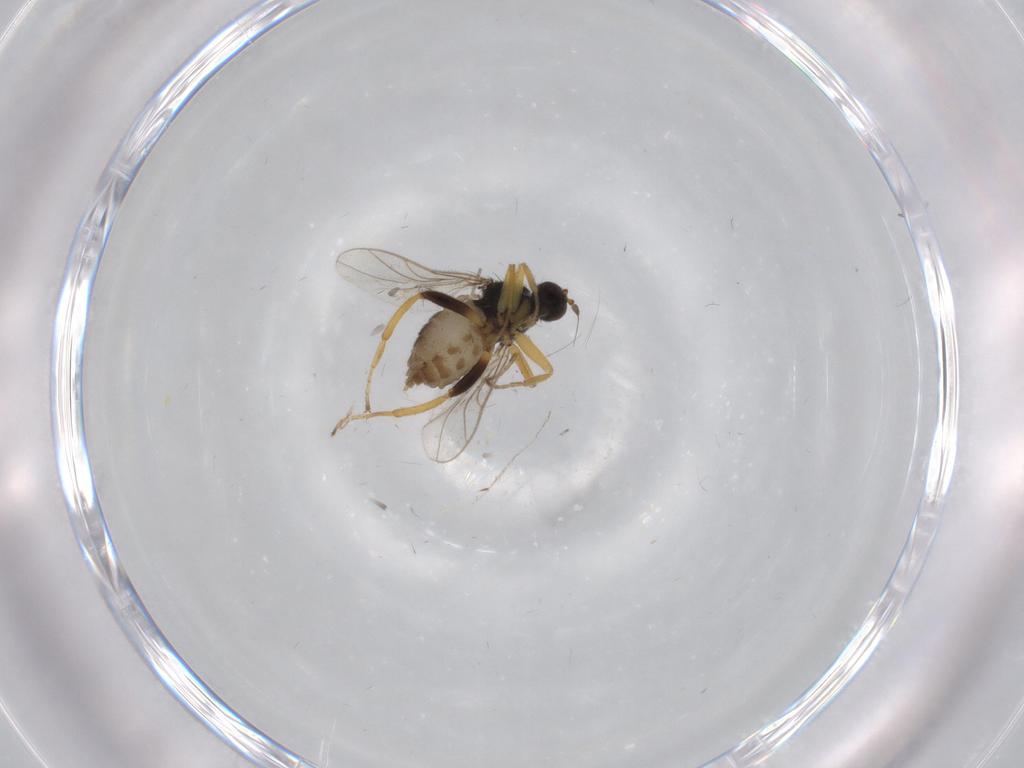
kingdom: Animalia
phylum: Arthropoda
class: Insecta
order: Diptera
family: Hybotidae
